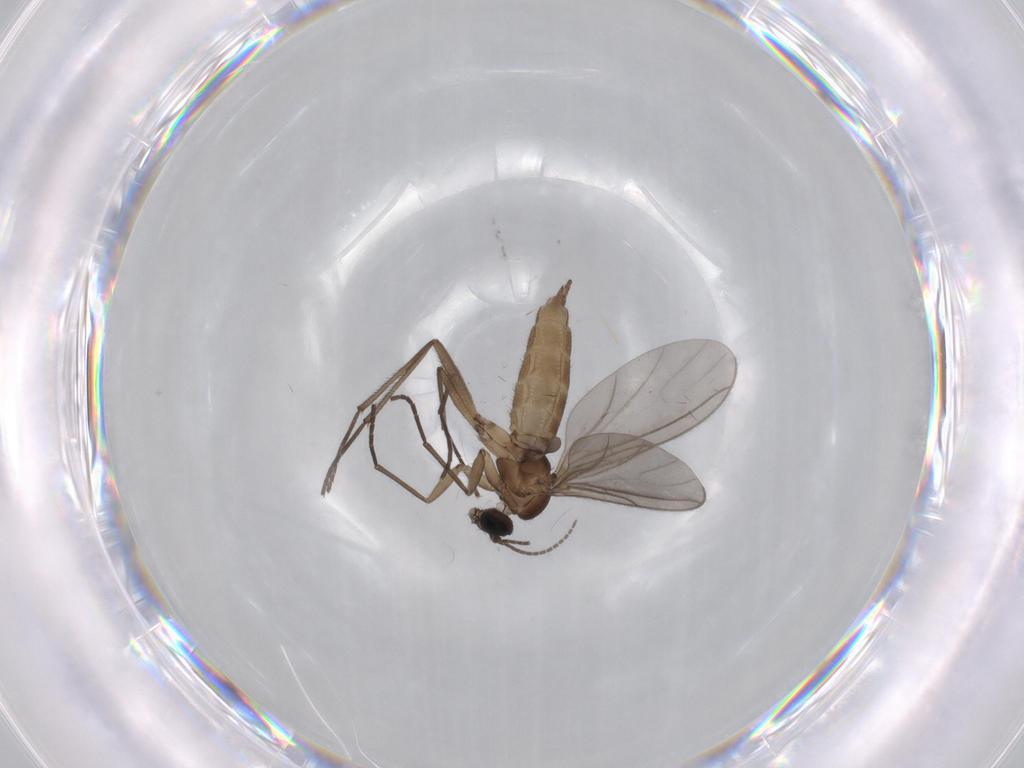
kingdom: Animalia
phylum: Arthropoda
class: Insecta
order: Diptera
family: Sciaridae
